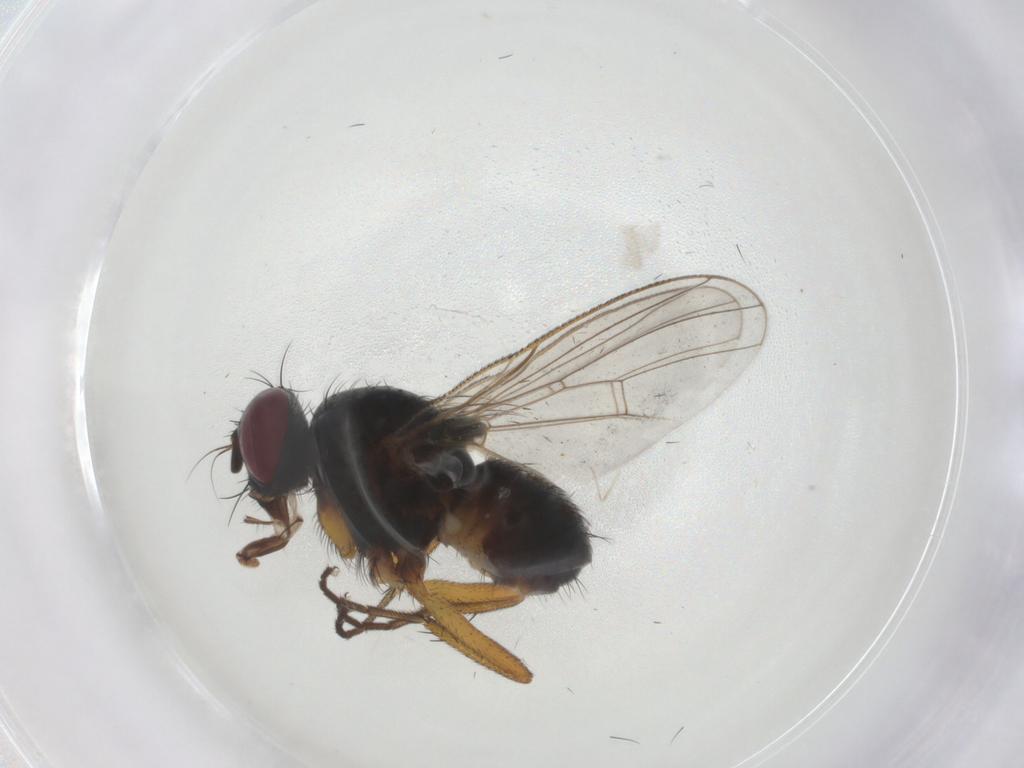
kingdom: Animalia
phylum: Arthropoda
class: Insecta
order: Diptera
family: Muscidae
